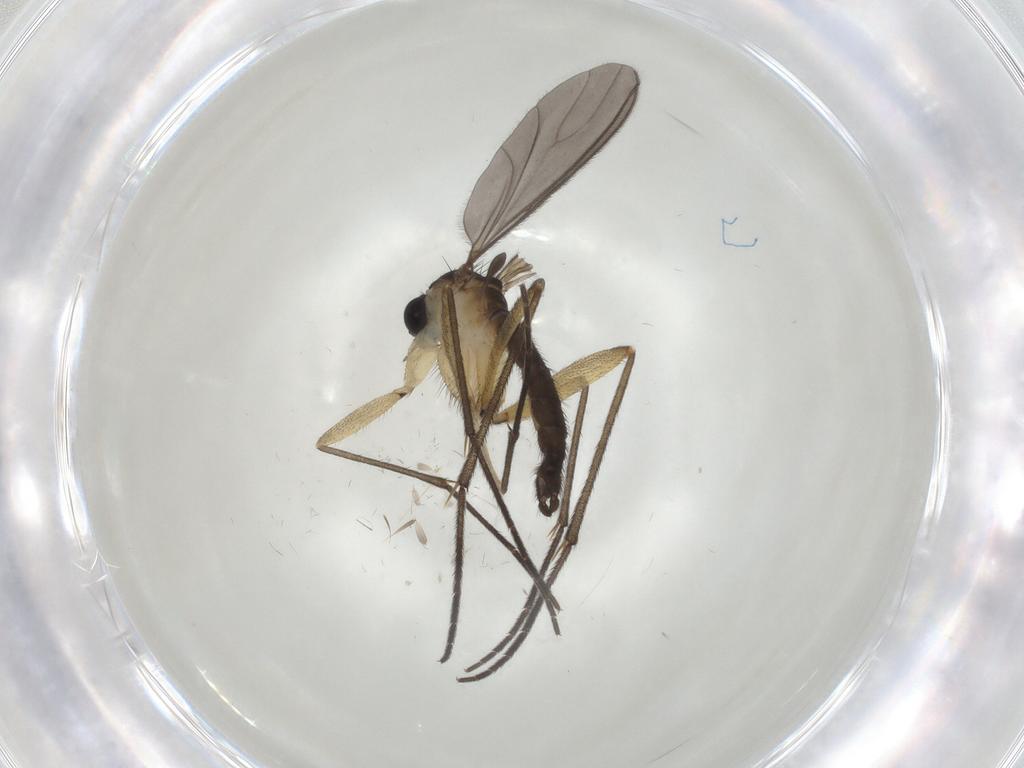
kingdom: Animalia
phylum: Arthropoda
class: Insecta
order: Diptera
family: Sciaridae
